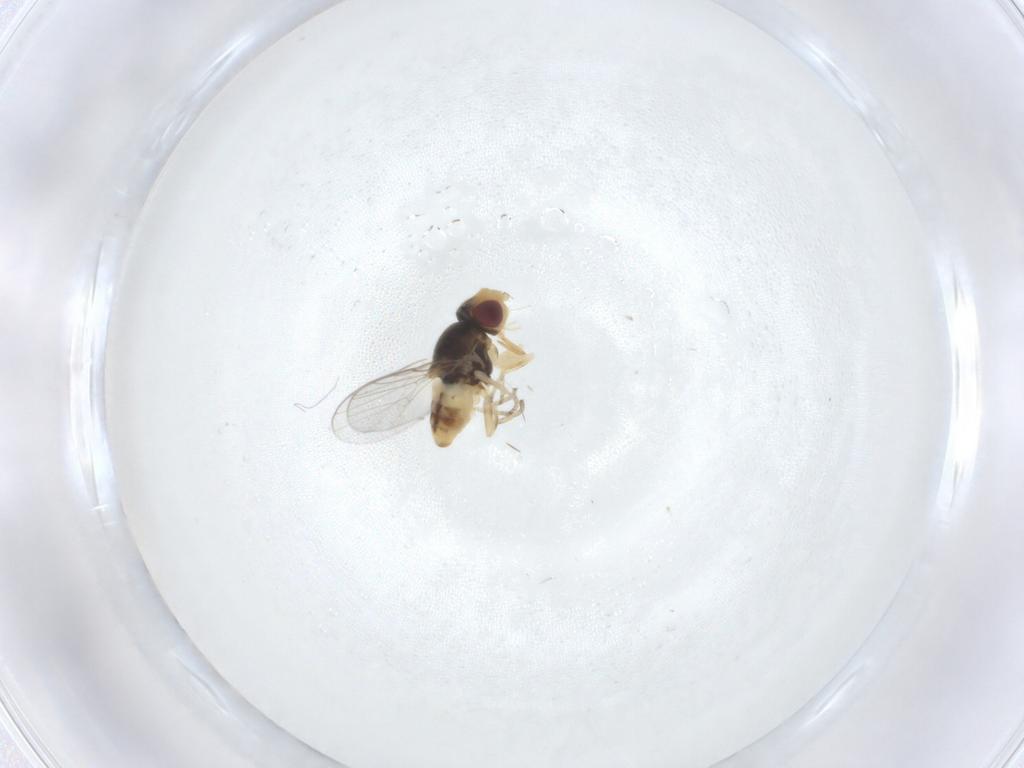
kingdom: Animalia
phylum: Arthropoda
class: Insecta
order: Diptera
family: Chloropidae
